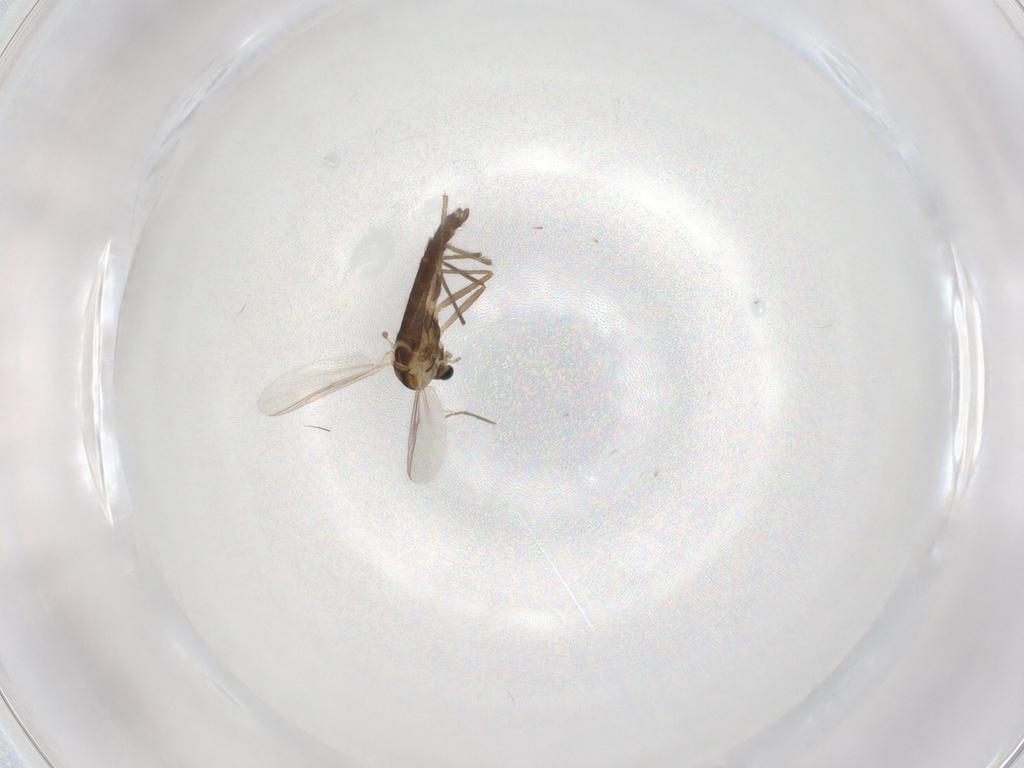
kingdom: Animalia
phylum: Arthropoda
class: Insecta
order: Diptera
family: Chironomidae
